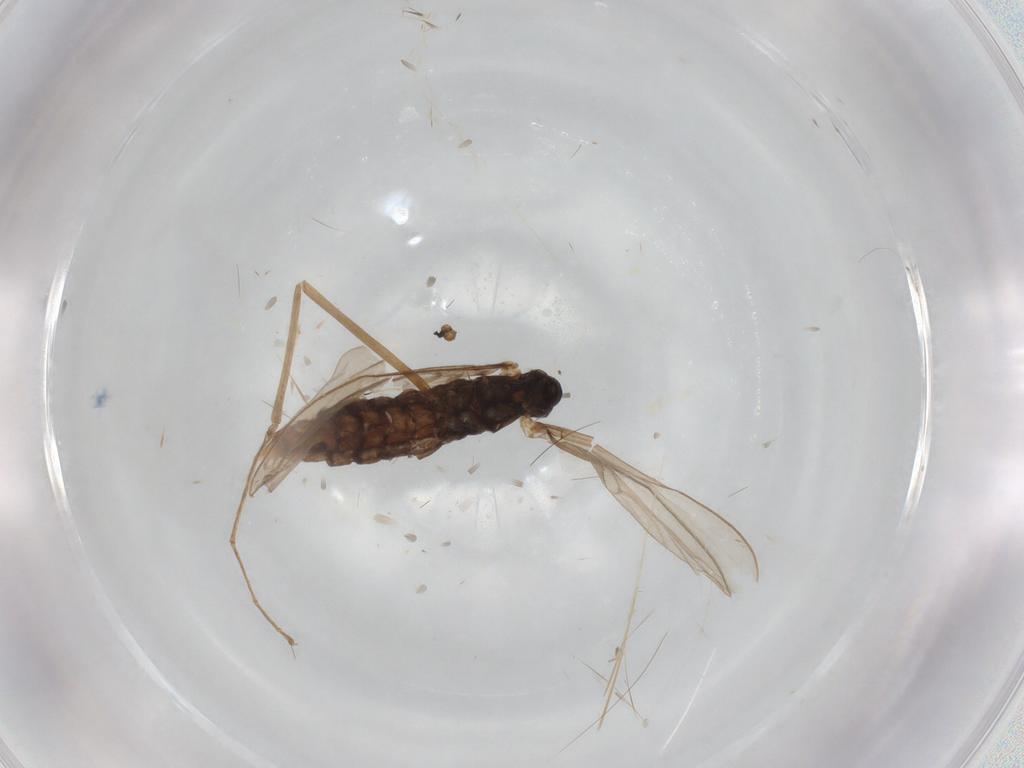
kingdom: Animalia
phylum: Arthropoda
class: Insecta
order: Diptera
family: Cecidomyiidae
